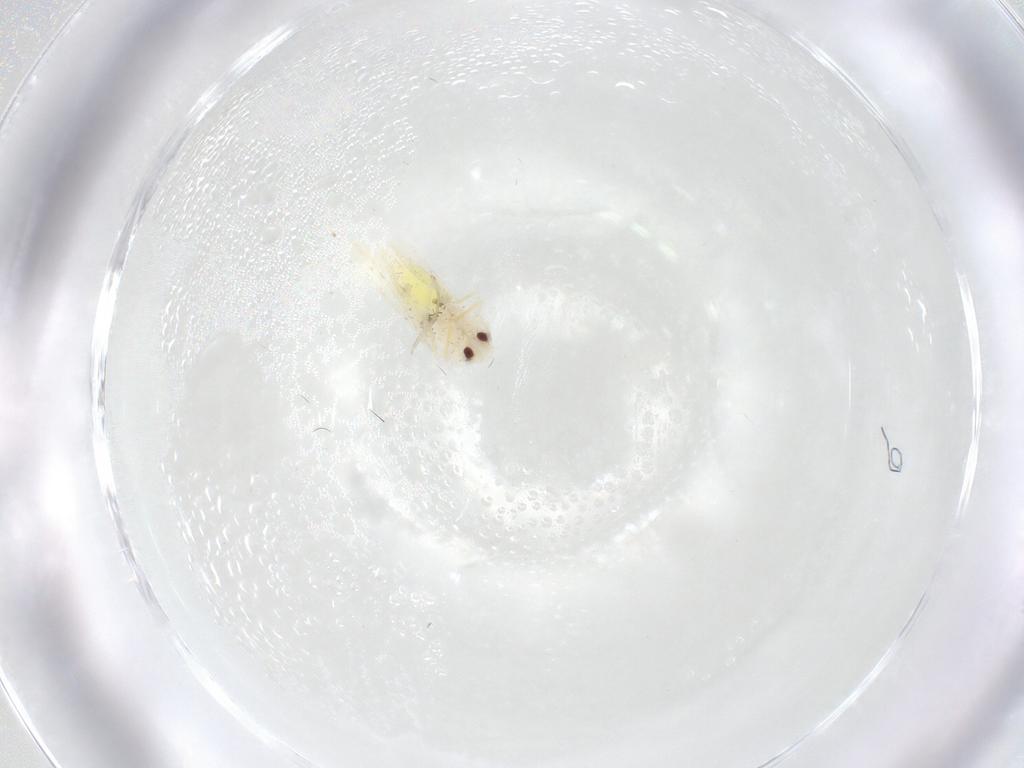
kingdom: Animalia
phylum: Arthropoda
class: Insecta
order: Hemiptera
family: Aleyrodidae
